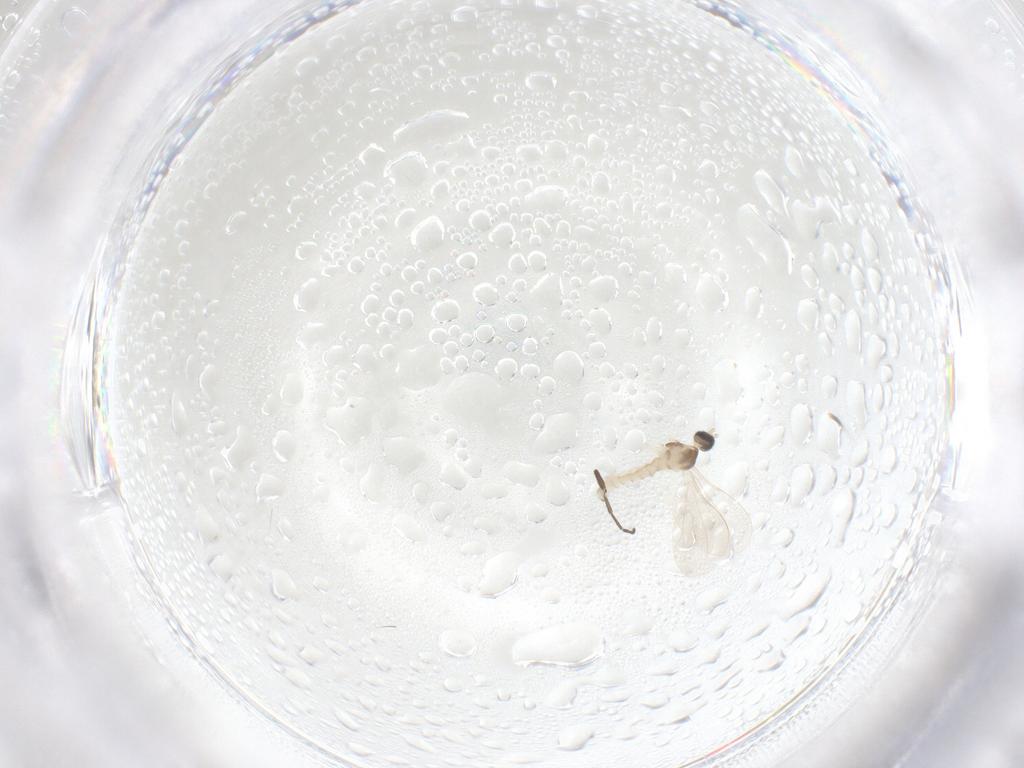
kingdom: Animalia
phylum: Arthropoda
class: Insecta
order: Diptera
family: Cecidomyiidae
